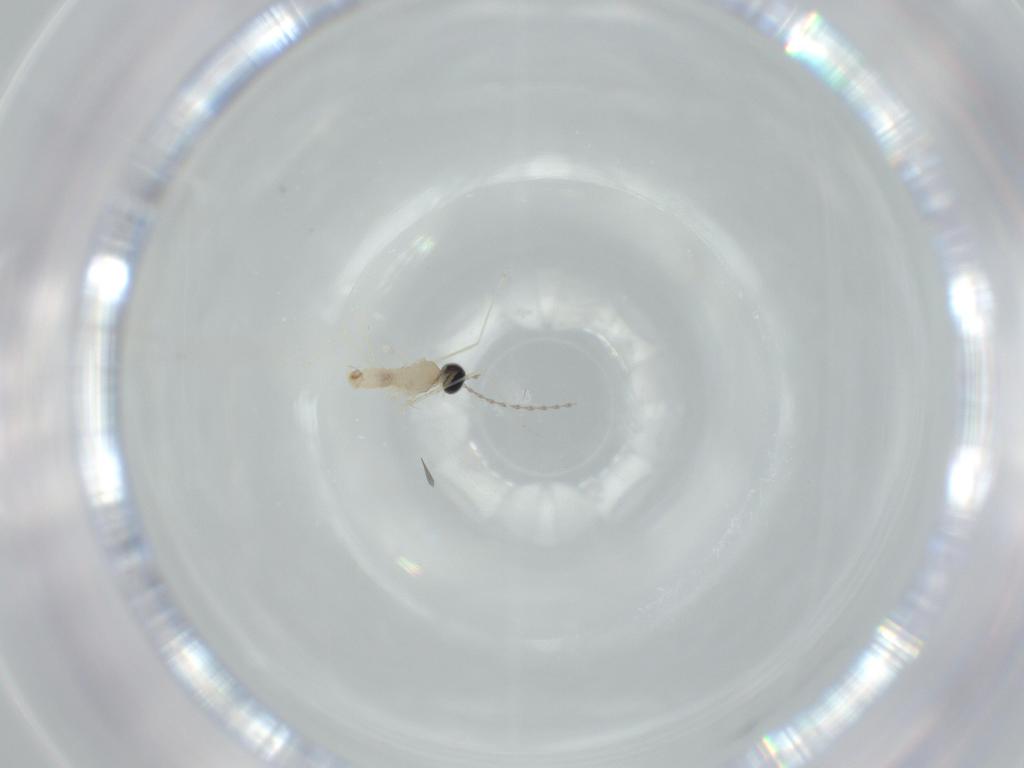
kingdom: Animalia
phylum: Arthropoda
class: Insecta
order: Diptera
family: Cecidomyiidae
